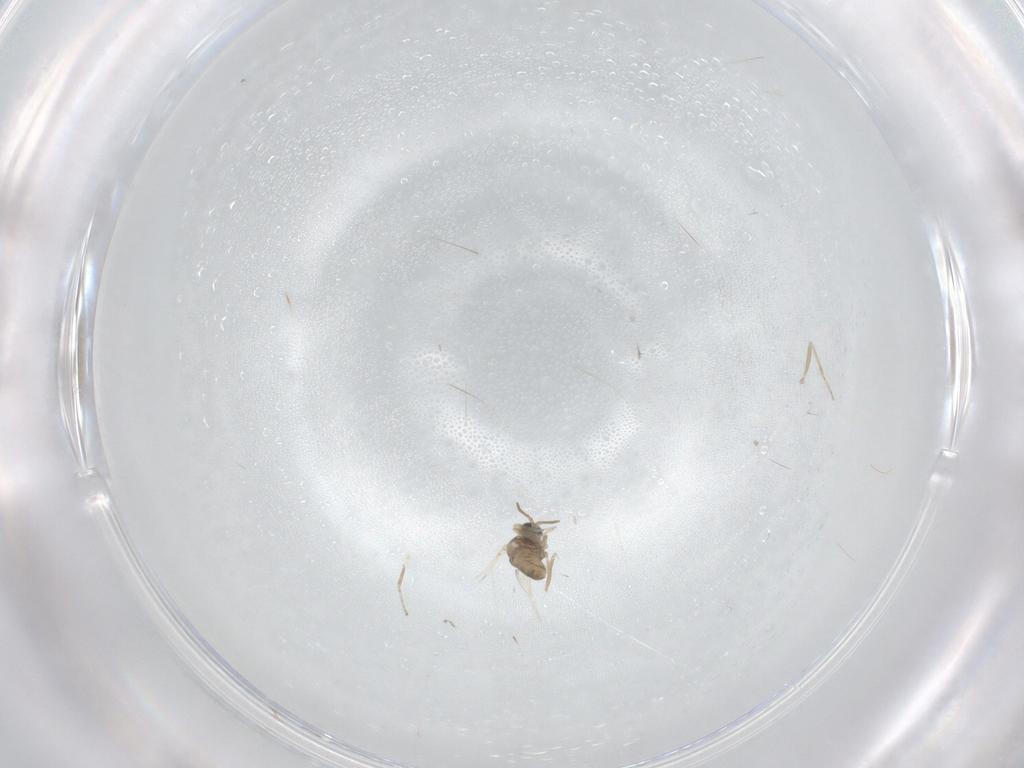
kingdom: Animalia
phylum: Arthropoda
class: Insecta
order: Diptera
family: Cecidomyiidae
